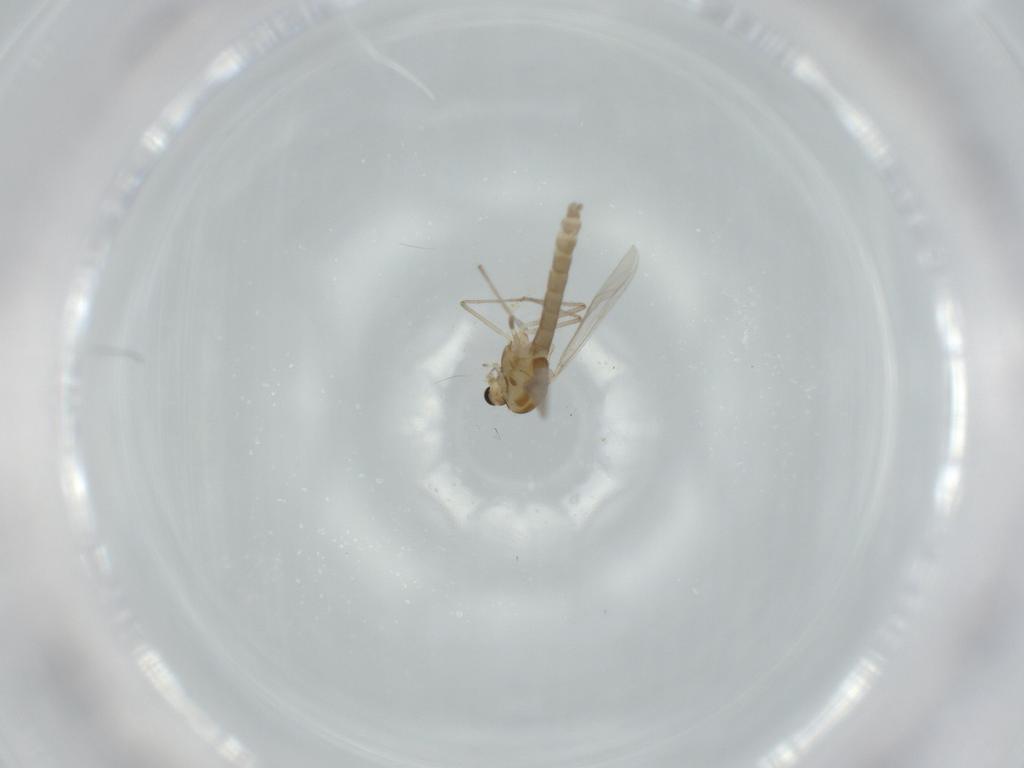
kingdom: Animalia
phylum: Arthropoda
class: Insecta
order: Diptera
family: Chironomidae
